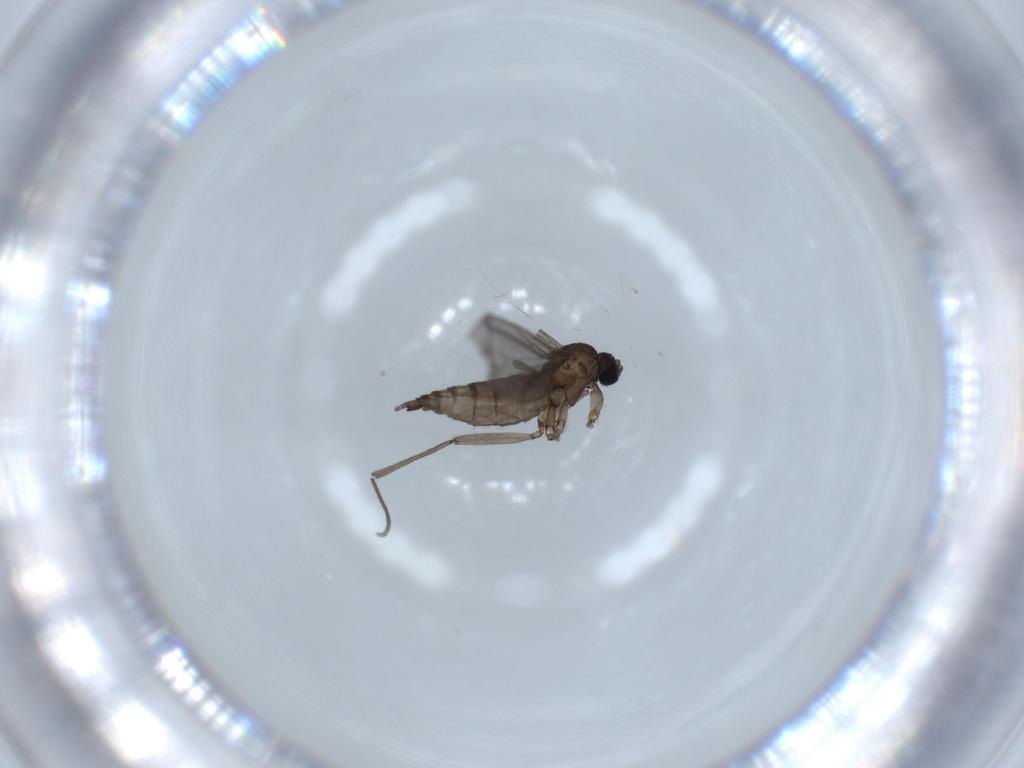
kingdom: Animalia
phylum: Arthropoda
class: Insecta
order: Diptera
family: Sciaridae
